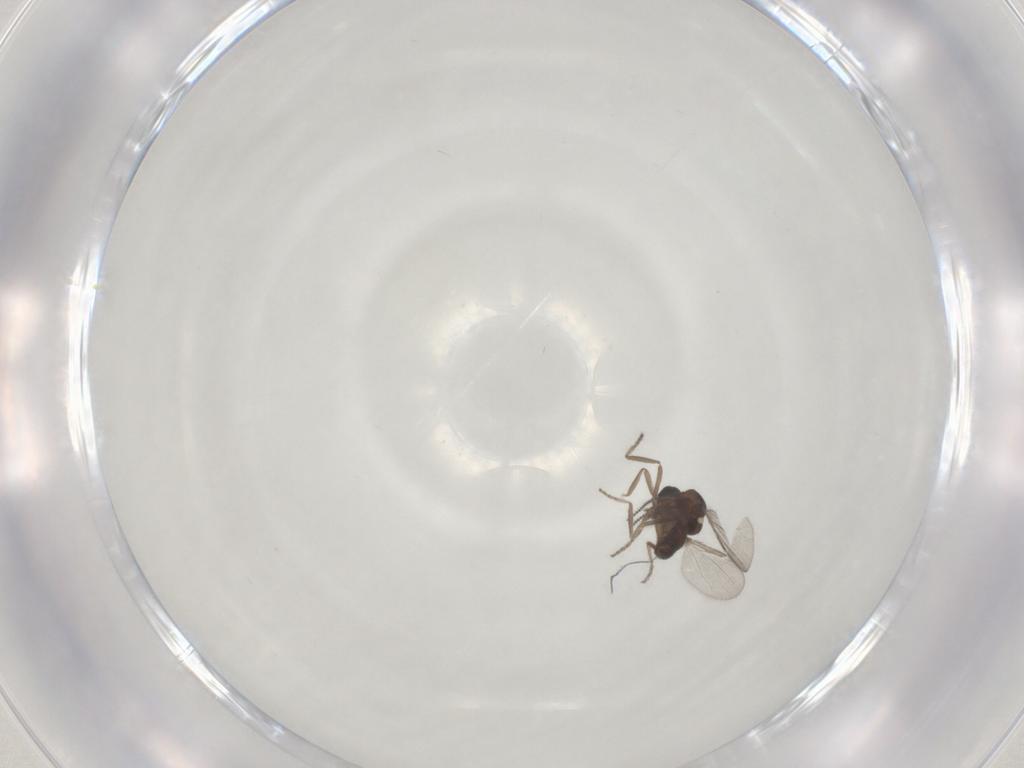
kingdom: Animalia
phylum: Arthropoda
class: Insecta
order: Diptera
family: Ceratopogonidae
